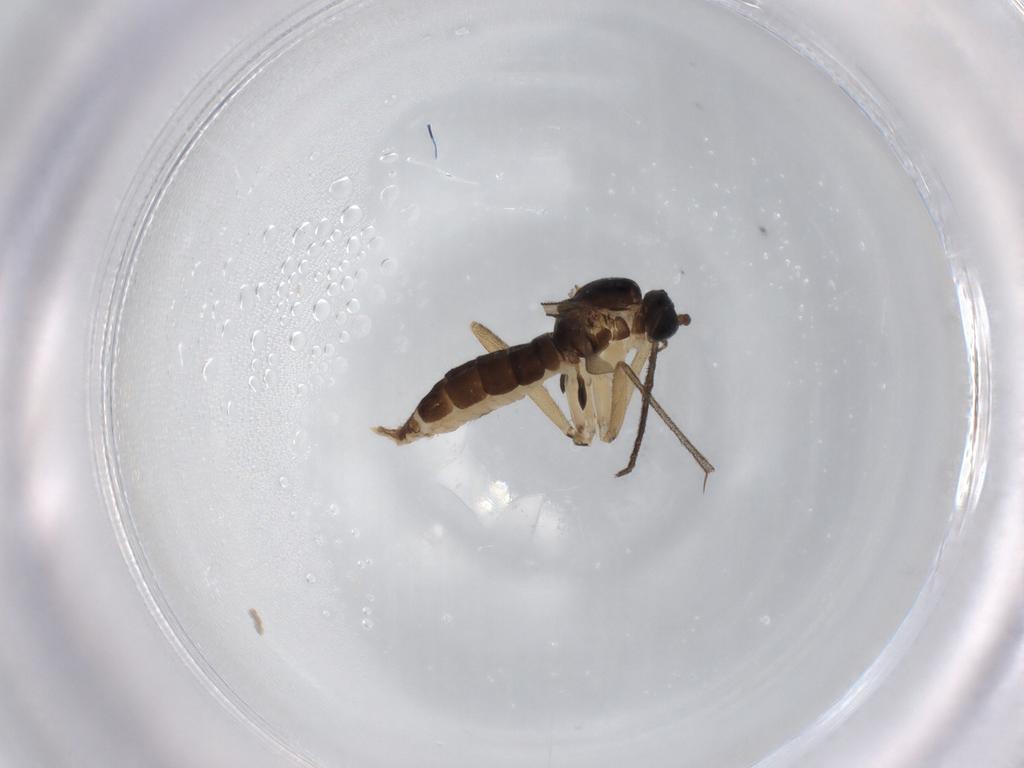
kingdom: Animalia
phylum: Arthropoda
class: Insecta
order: Diptera
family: Sciaridae
